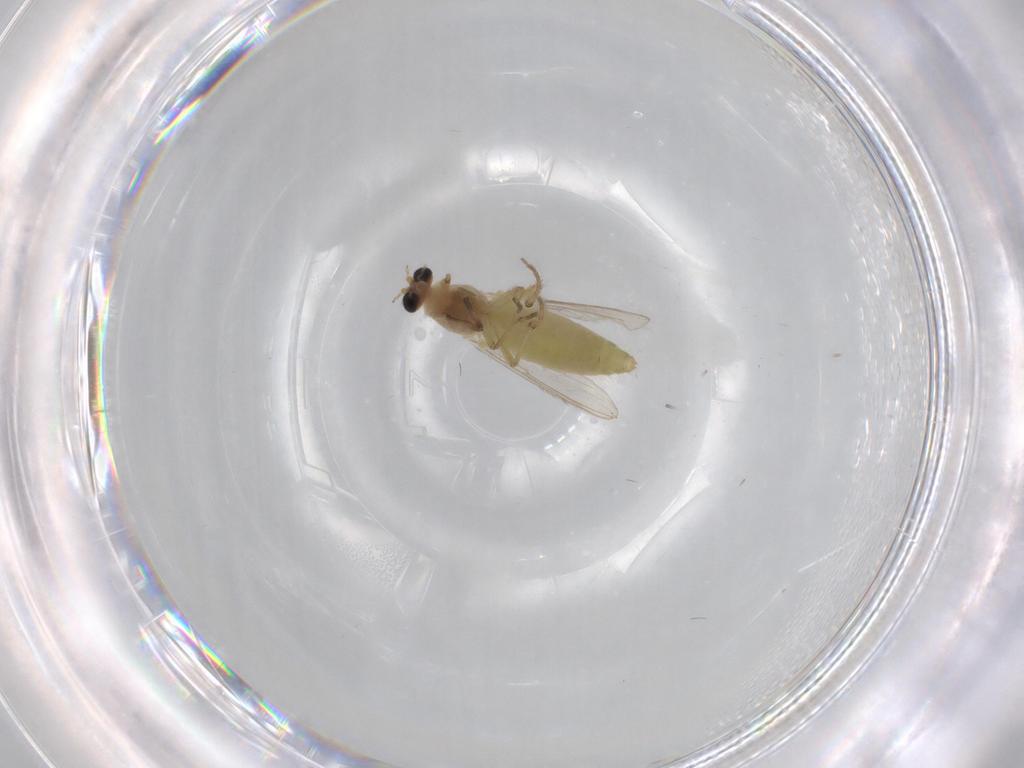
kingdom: Animalia
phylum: Arthropoda
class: Insecta
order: Diptera
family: Chironomidae
